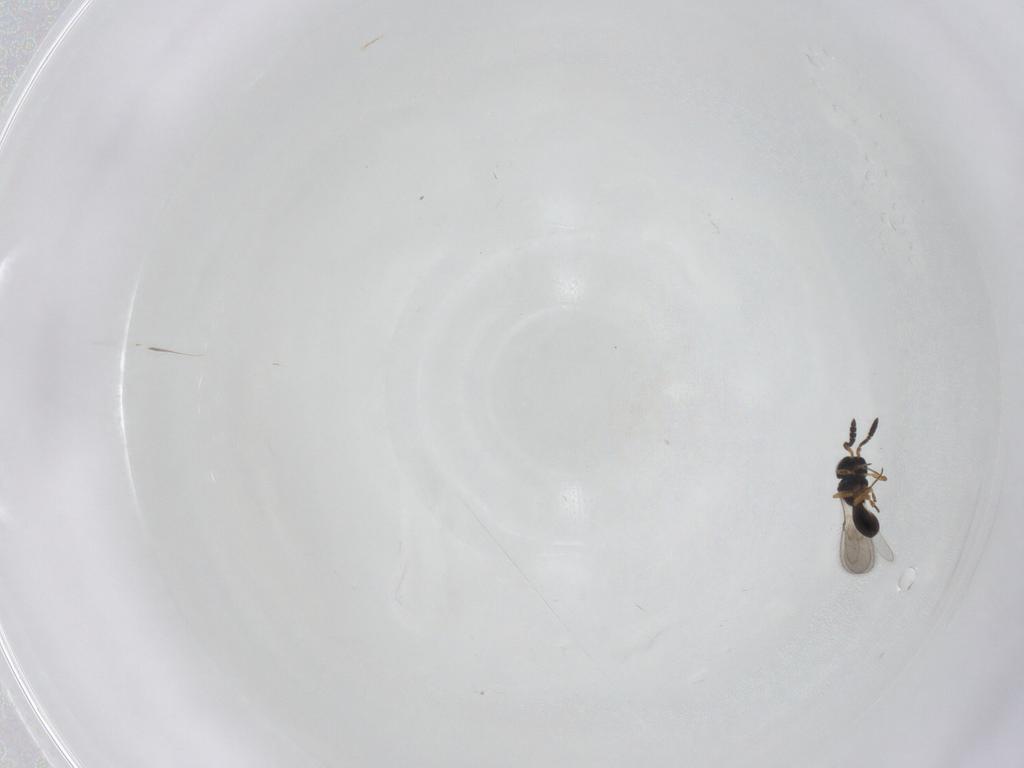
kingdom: Animalia
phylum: Arthropoda
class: Insecta
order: Hymenoptera
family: Scelionidae
